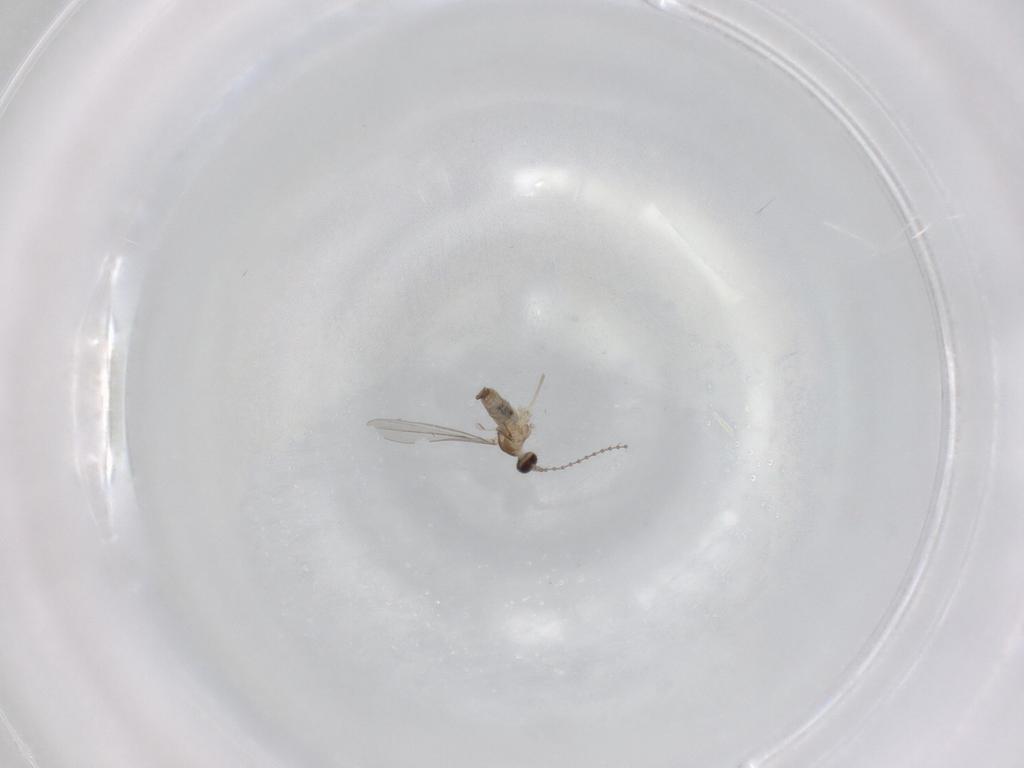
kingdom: Animalia
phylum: Arthropoda
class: Insecta
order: Diptera
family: Cecidomyiidae
